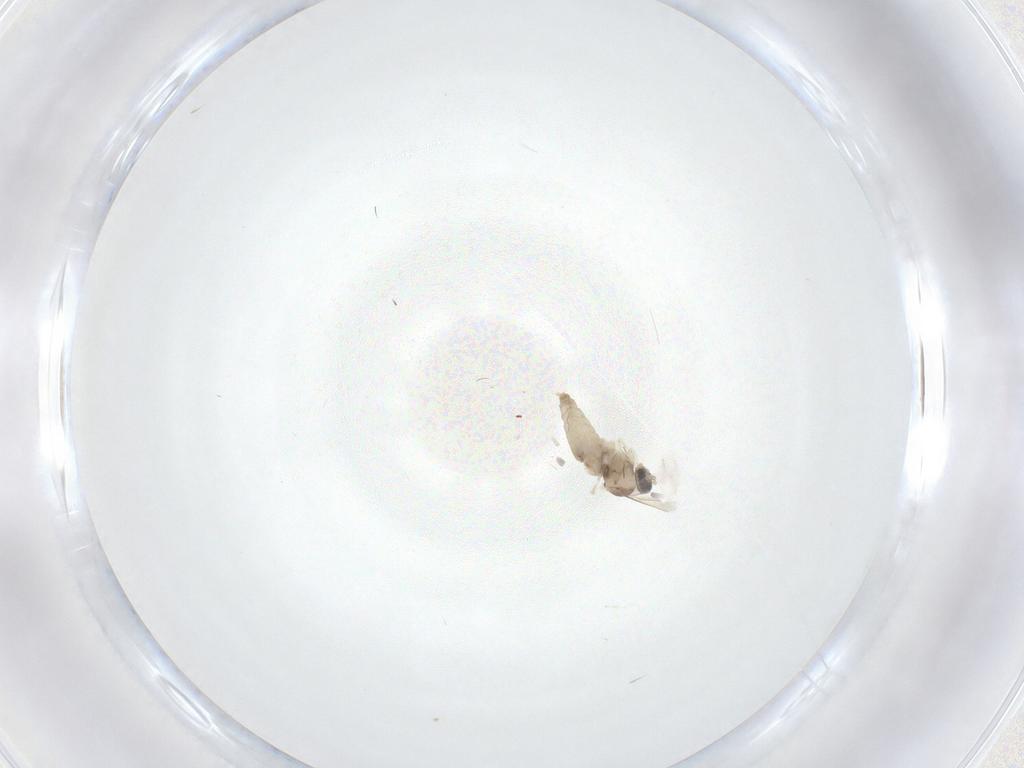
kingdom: Animalia
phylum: Arthropoda
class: Insecta
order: Diptera
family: Cecidomyiidae
